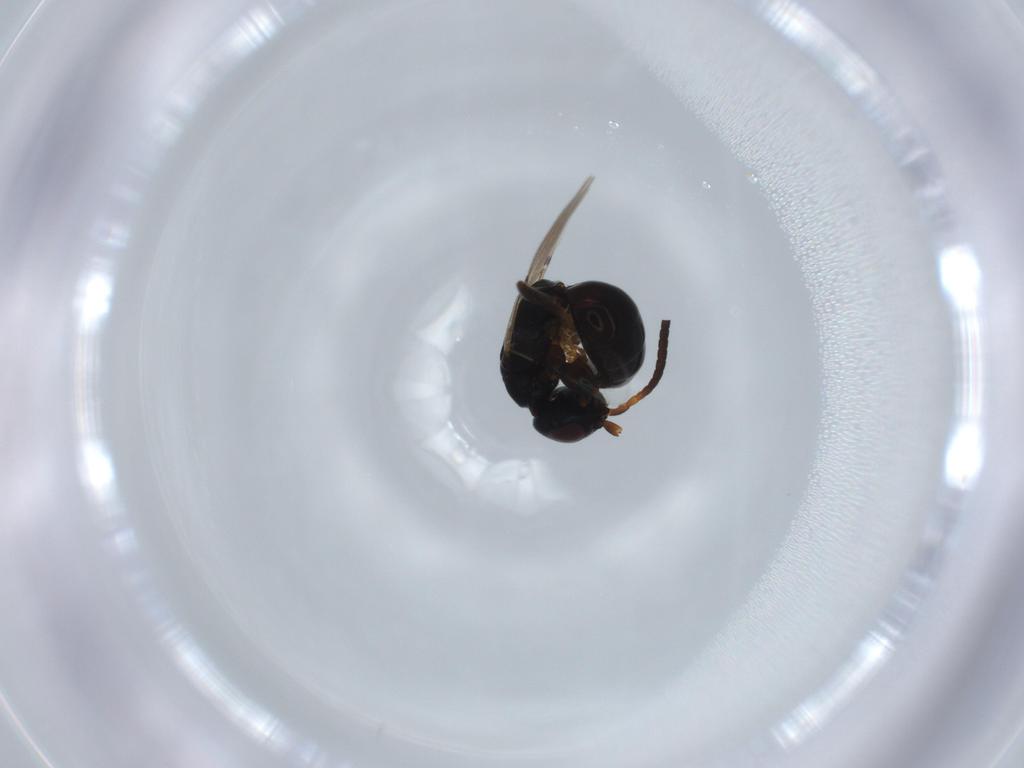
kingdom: Animalia
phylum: Arthropoda
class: Insecta
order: Hymenoptera
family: Bethylidae
